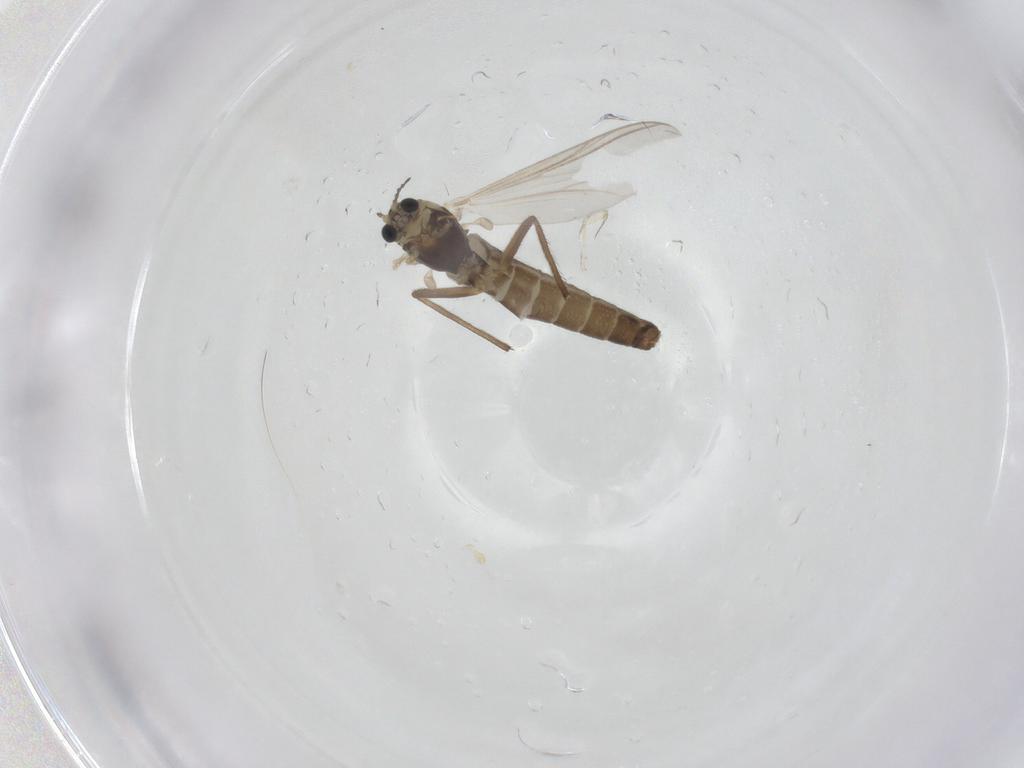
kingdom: Animalia
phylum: Arthropoda
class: Insecta
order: Diptera
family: Chironomidae
